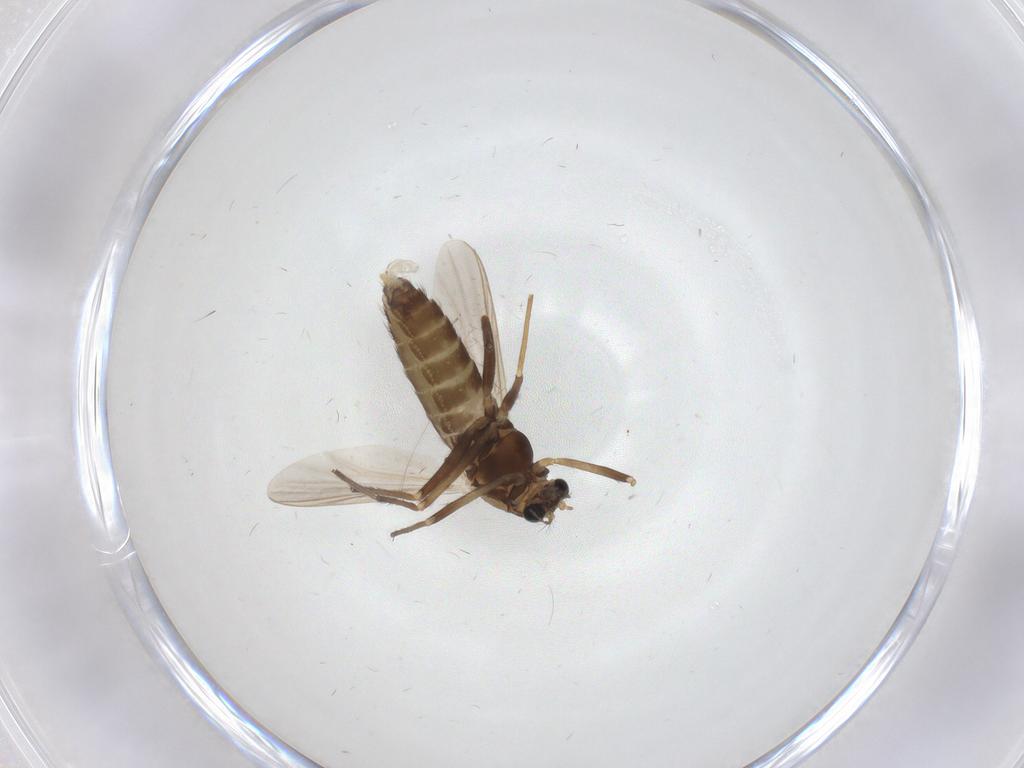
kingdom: Animalia
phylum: Arthropoda
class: Insecta
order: Diptera
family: Chironomidae
